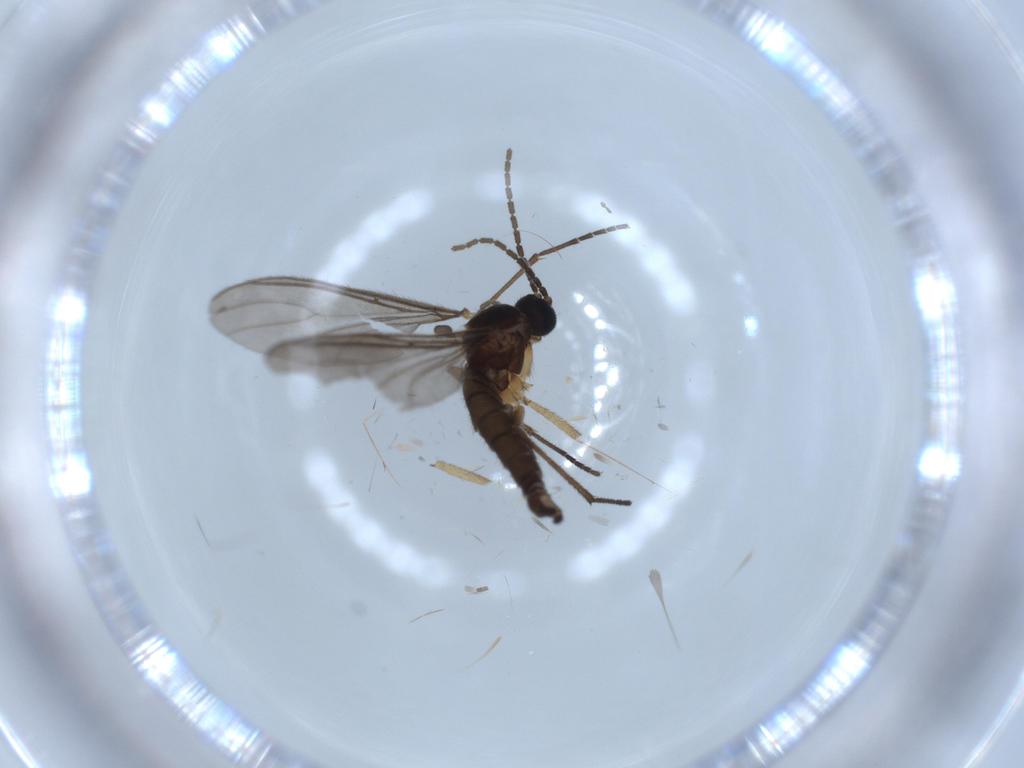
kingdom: Animalia
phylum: Arthropoda
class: Insecta
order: Diptera
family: Sciaridae
